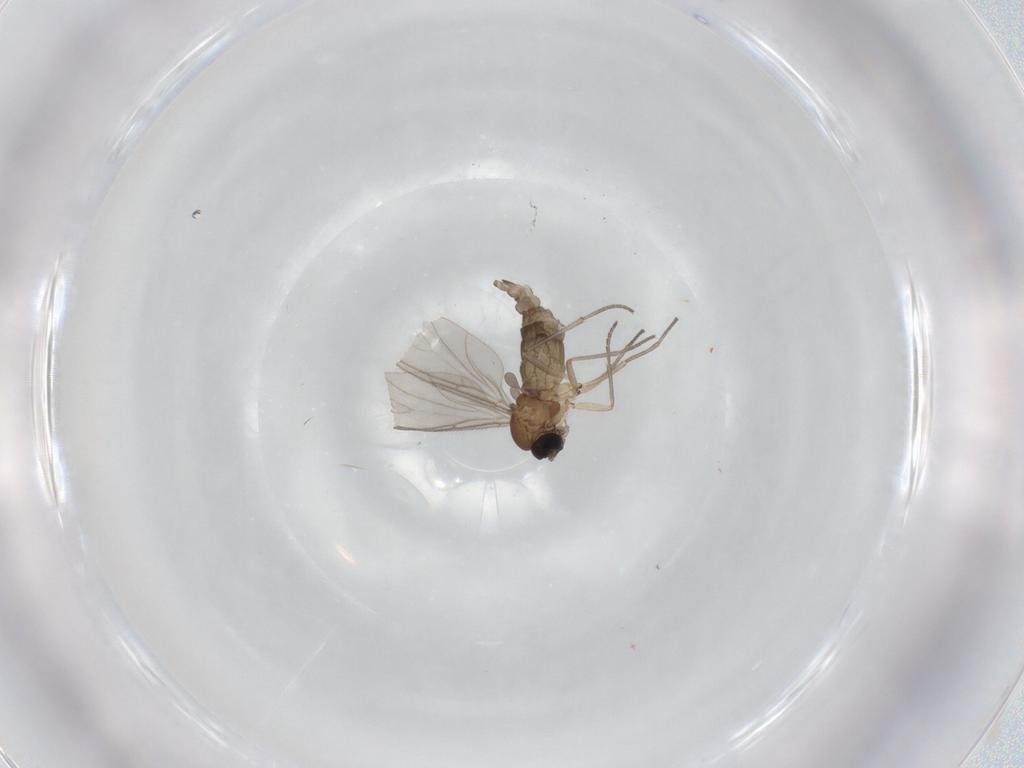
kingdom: Animalia
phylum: Arthropoda
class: Insecta
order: Diptera
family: Sciaridae
